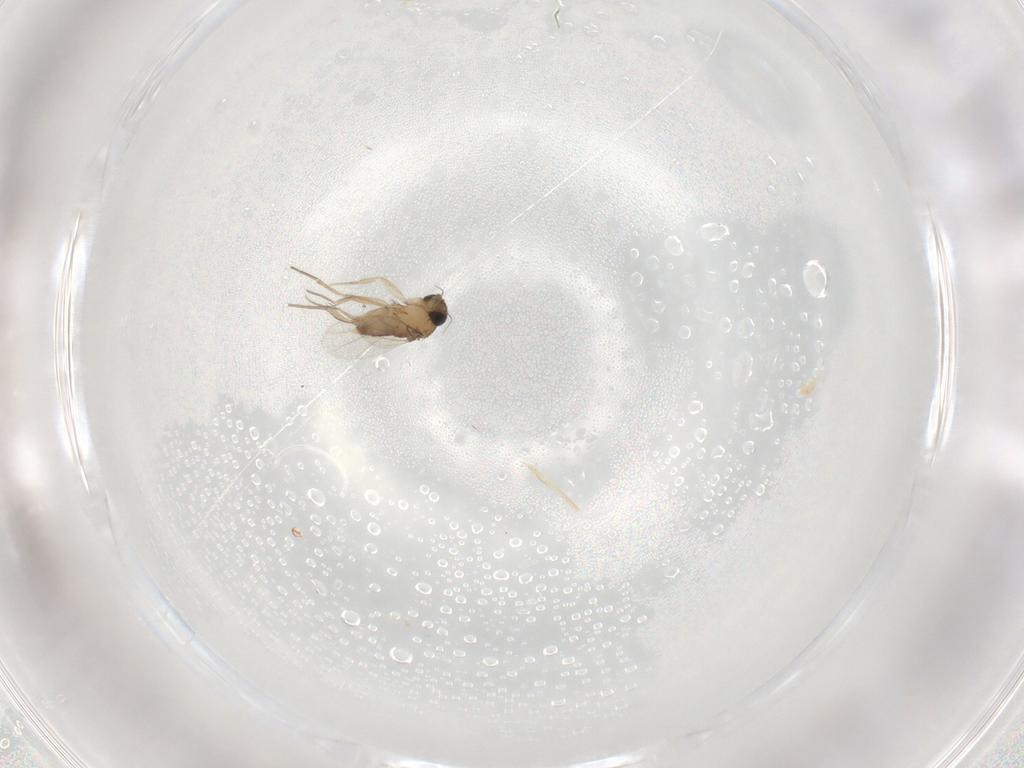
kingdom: Animalia
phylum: Arthropoda
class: Insecta
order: Diptera
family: Phoridae
